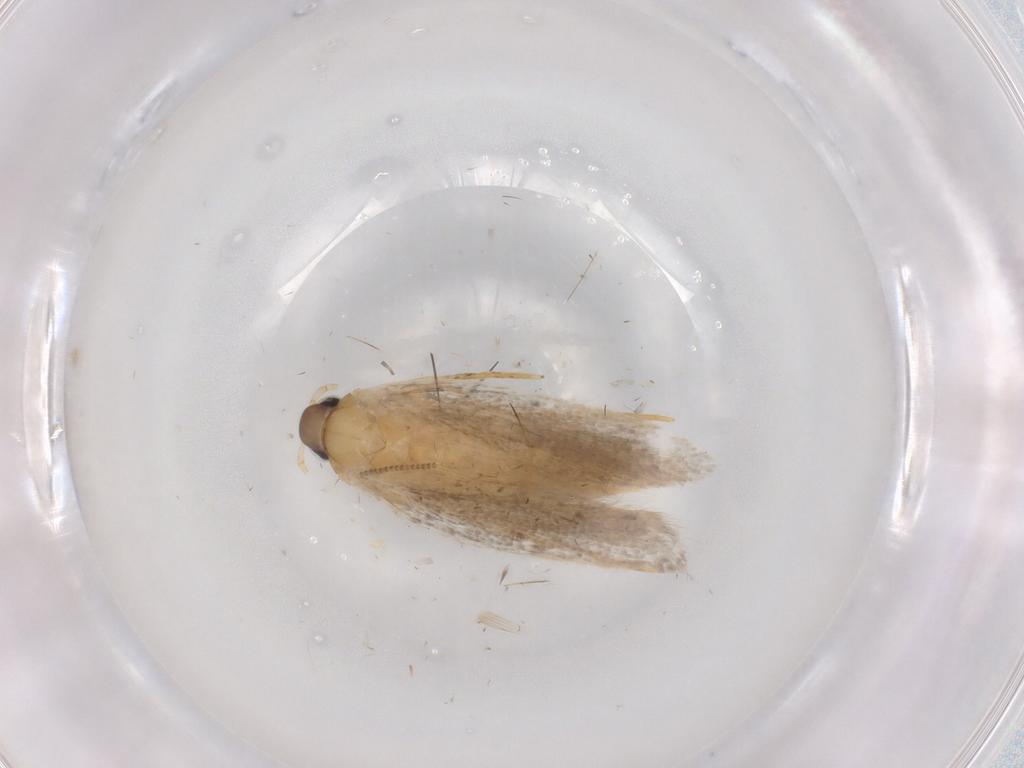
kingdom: Animalia
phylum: Arthropoda
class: Insecta
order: Lepidoptera
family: Autostichidae
